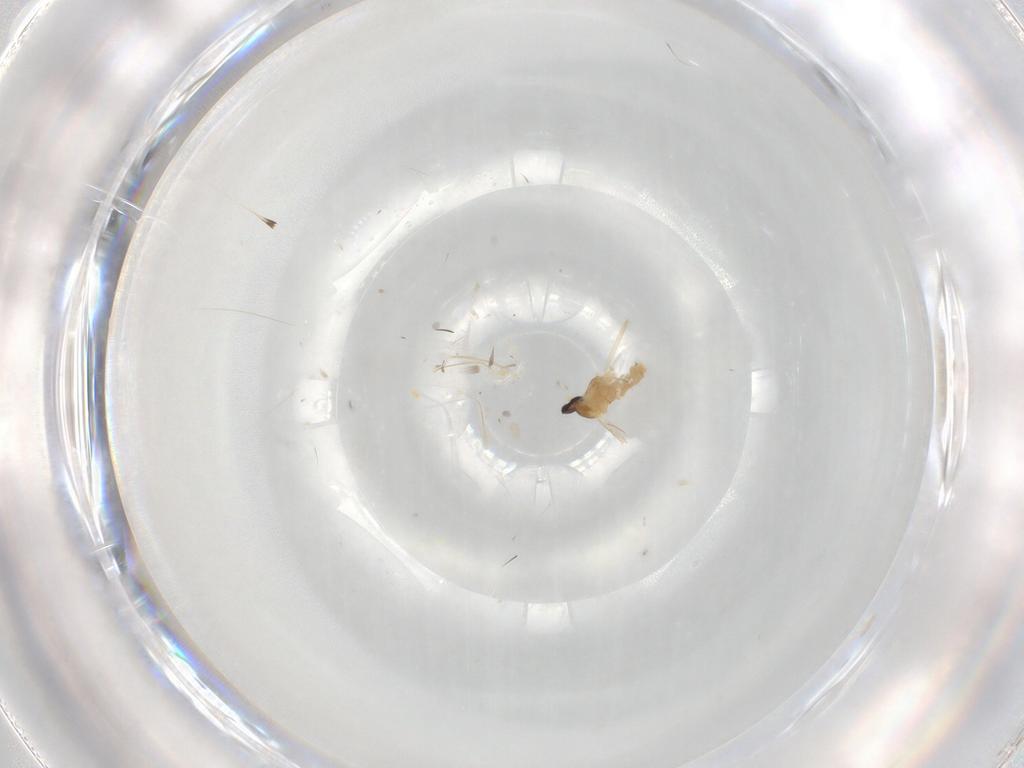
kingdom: Animalia
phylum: Arthropoda
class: Insecta
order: Diptera
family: Cecidomyiidae
